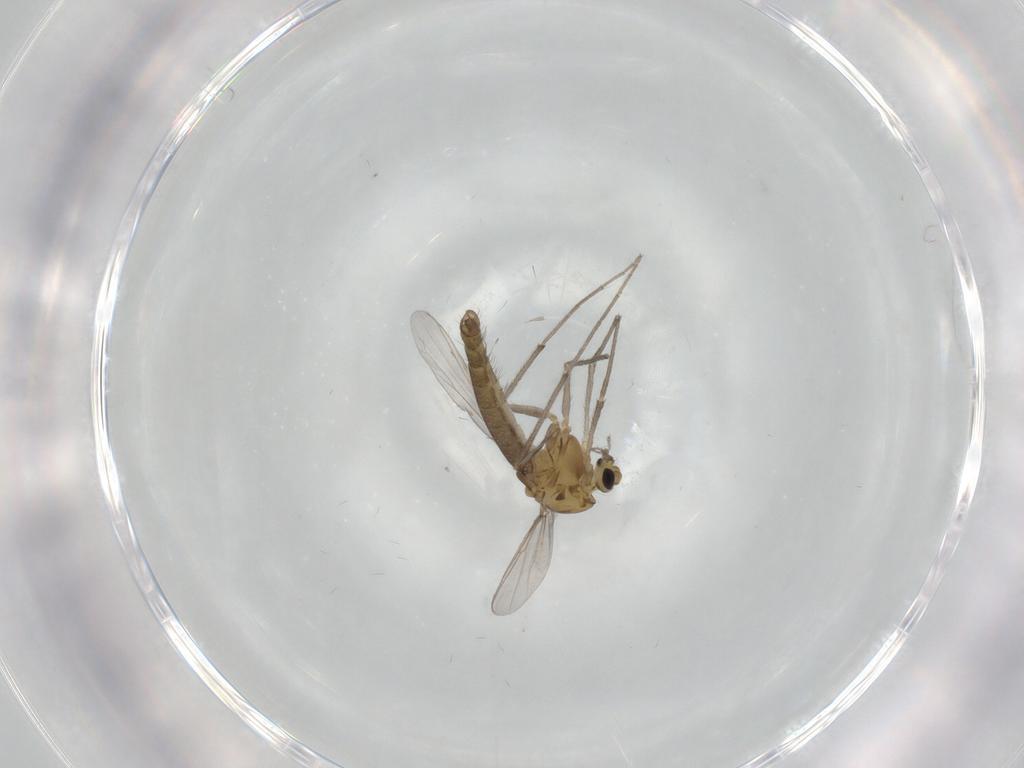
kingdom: Animalia
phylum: Arthropoda
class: Insecta
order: Diptera
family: Chironomidae
